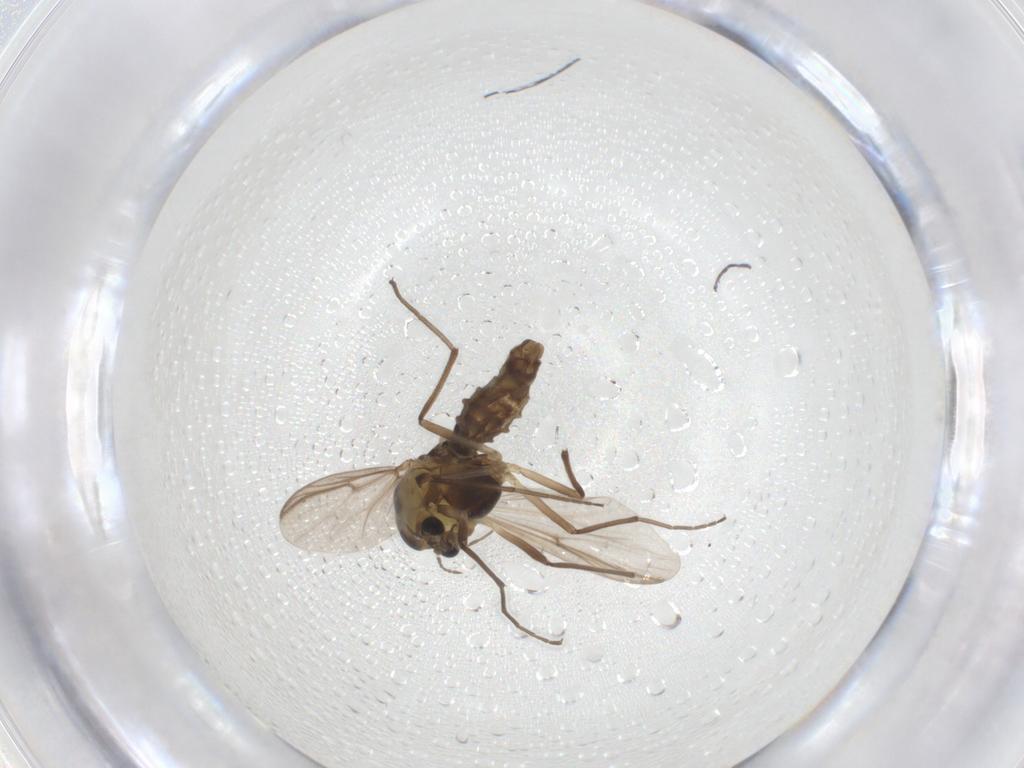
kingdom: Animalia
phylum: Arthropoda
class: Insecta
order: Diptera
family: Chironomidae
